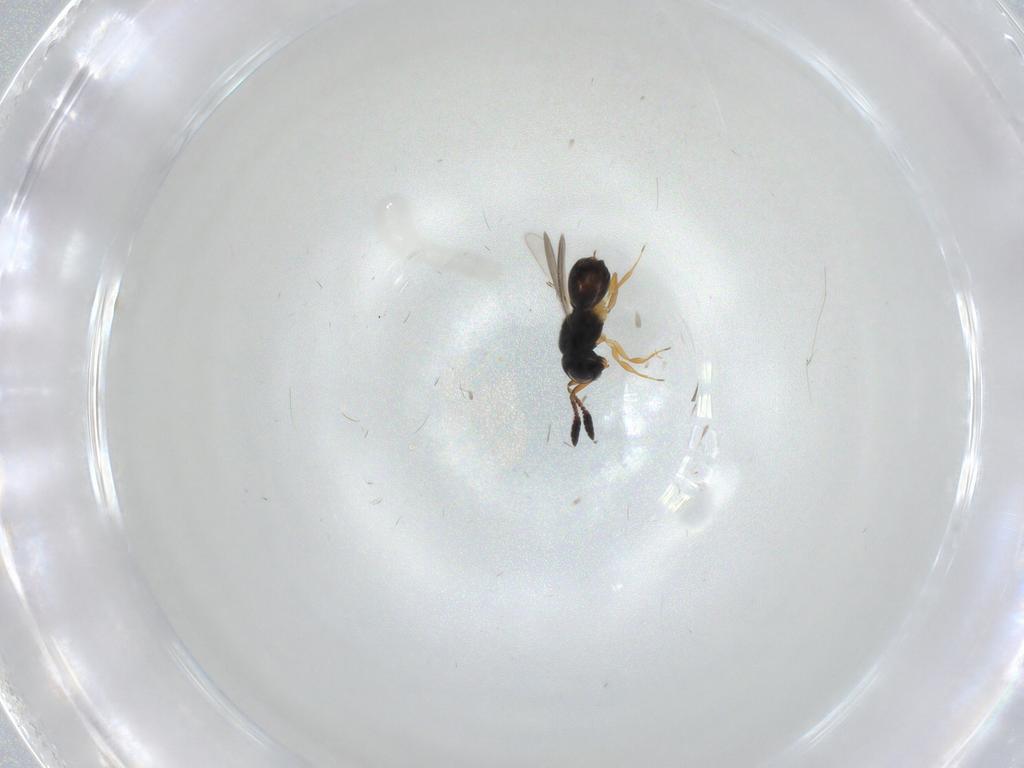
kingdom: Animalia
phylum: Arthropoda
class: Insecta
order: Hymenoptera
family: Scelionidae
